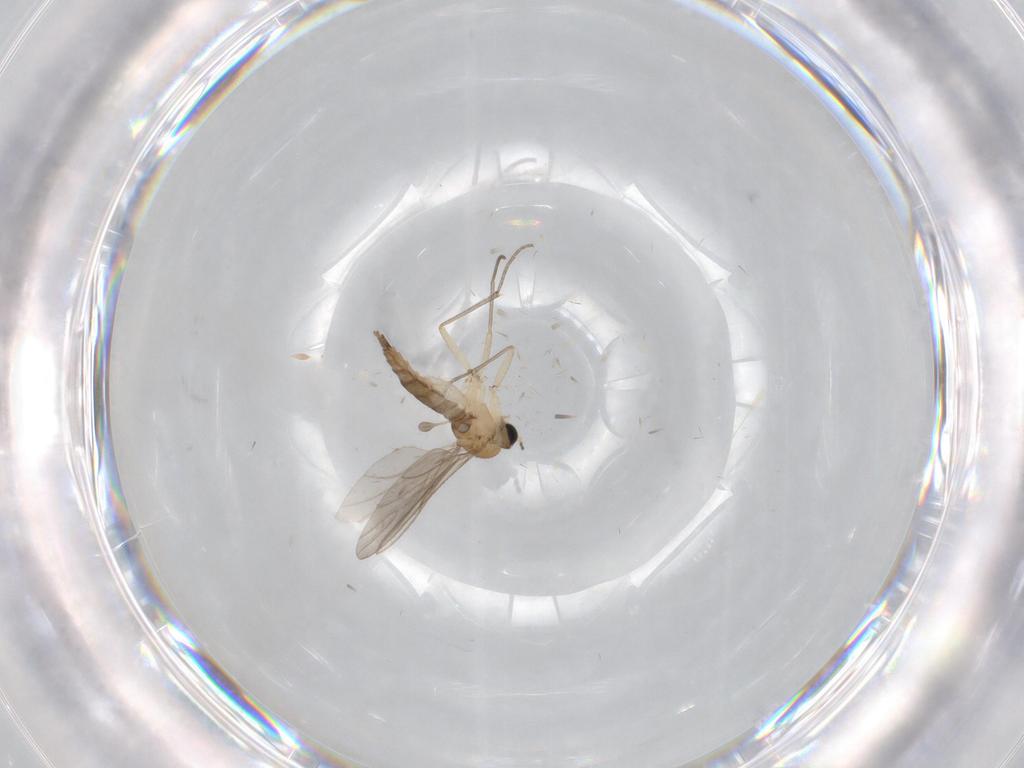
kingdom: Animalia
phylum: Arthropoda
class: Insecta
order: Diptera
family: Sciaridae
